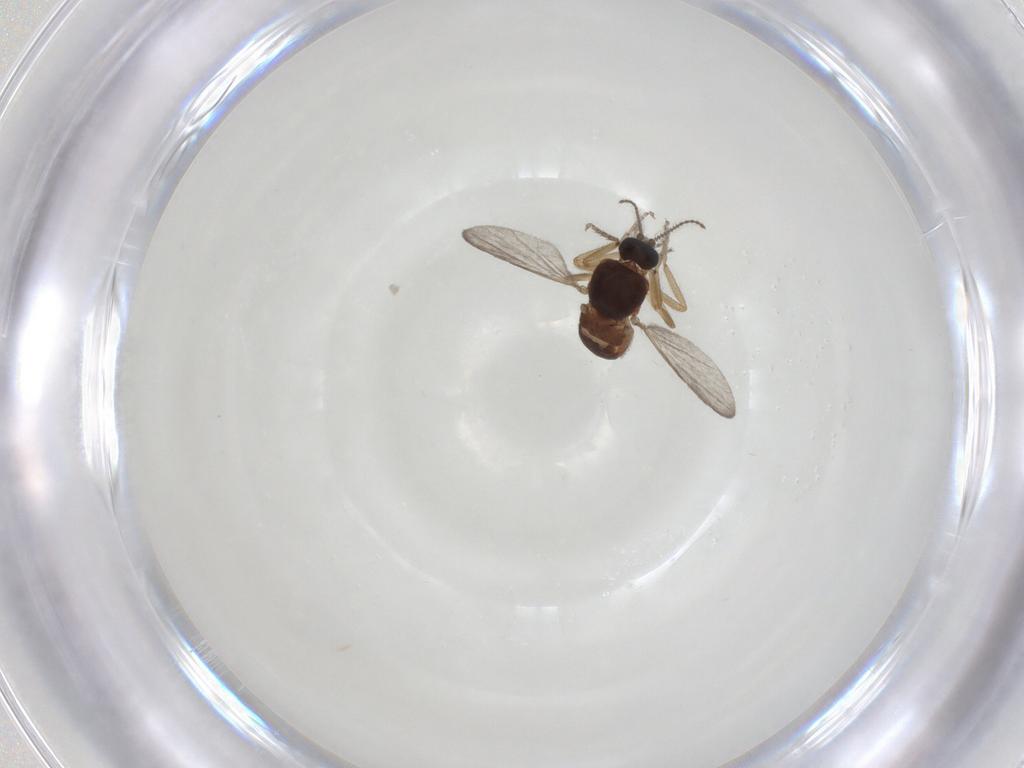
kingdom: Animalia
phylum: Arthropoda
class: Insecta
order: Diptera
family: Ceratopogonidae
